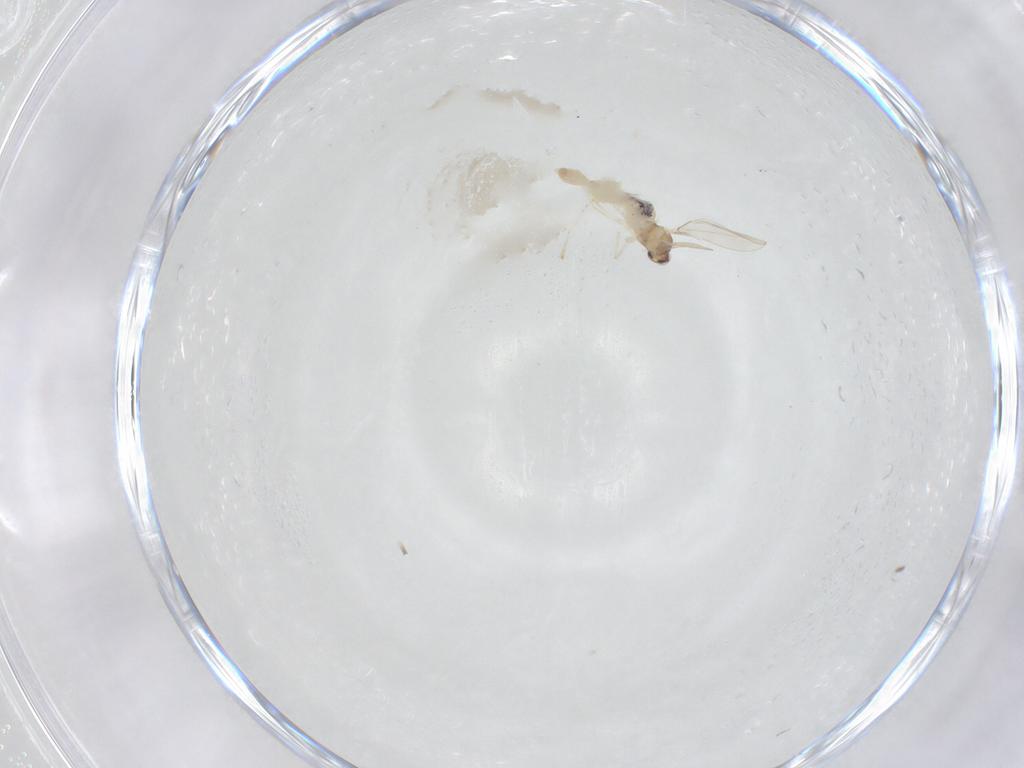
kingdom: Animalia
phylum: Arthropoda
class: Insecta
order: Diptera
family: Cecidomyiidae
